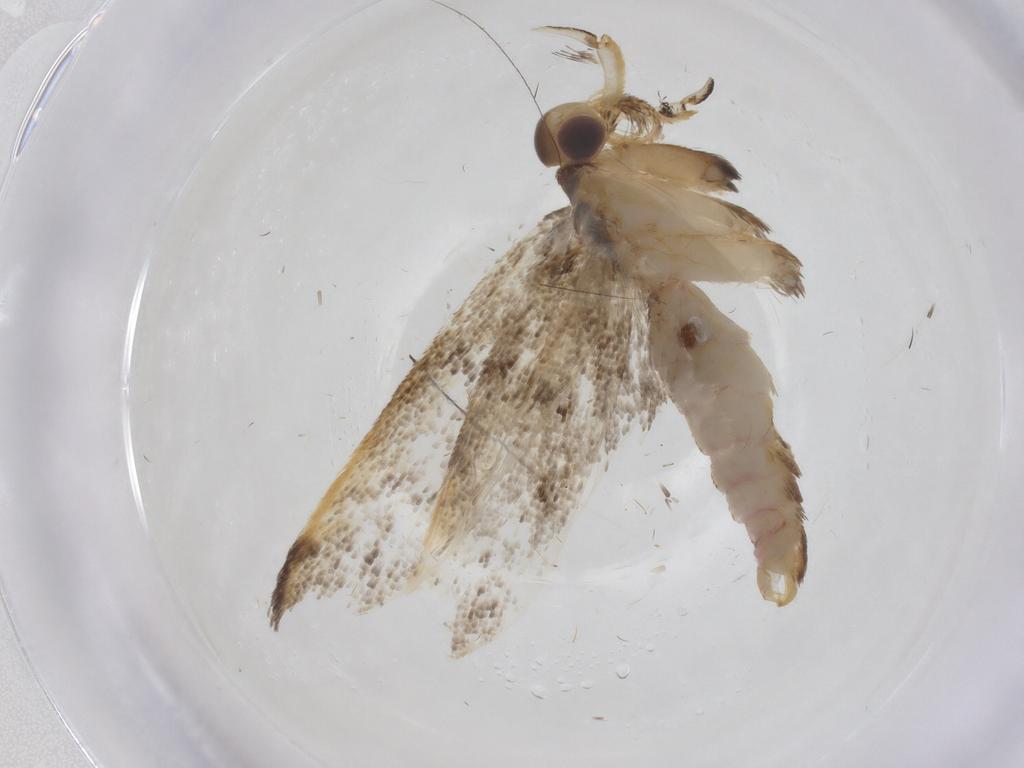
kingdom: Animalia
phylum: Arthropoda
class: Insecta
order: Lepidoptera
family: Lecithoceridae
